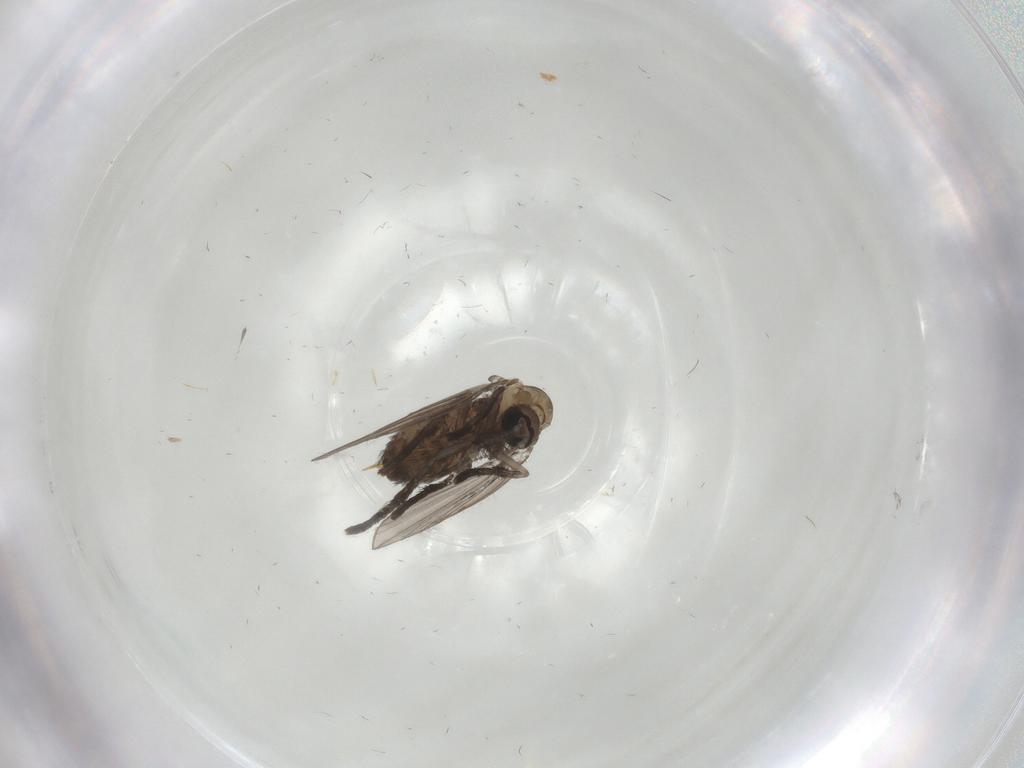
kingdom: Animalia
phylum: Arthropoda
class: Insecta
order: Diptera
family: Psychodidae
